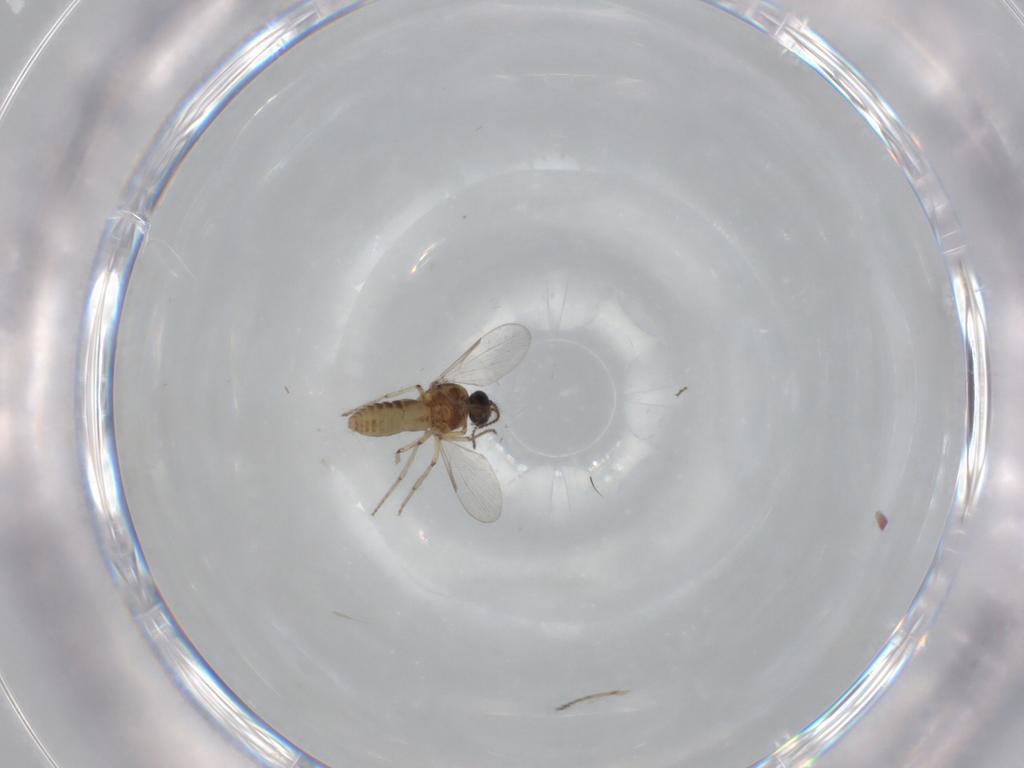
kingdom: Animalia
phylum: Arthropoda
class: Insecta
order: Diptera
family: Ceratopogonidae
